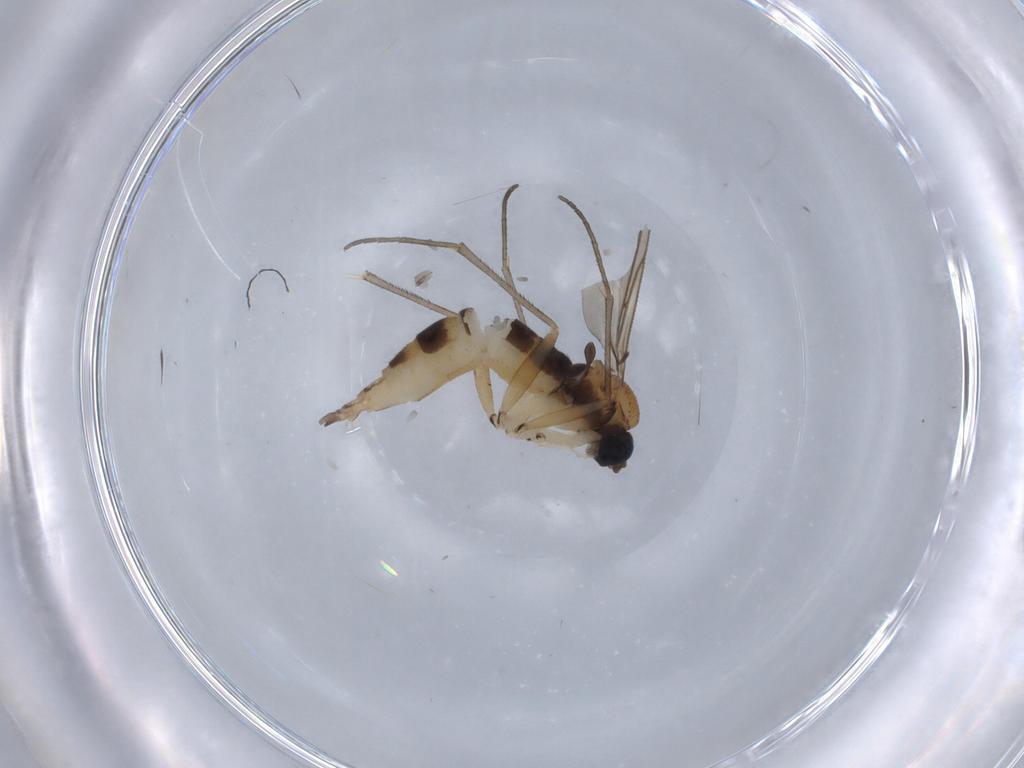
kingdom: Animalia
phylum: Arthropoda
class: Insecta
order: Diptera
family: Sciaridae
